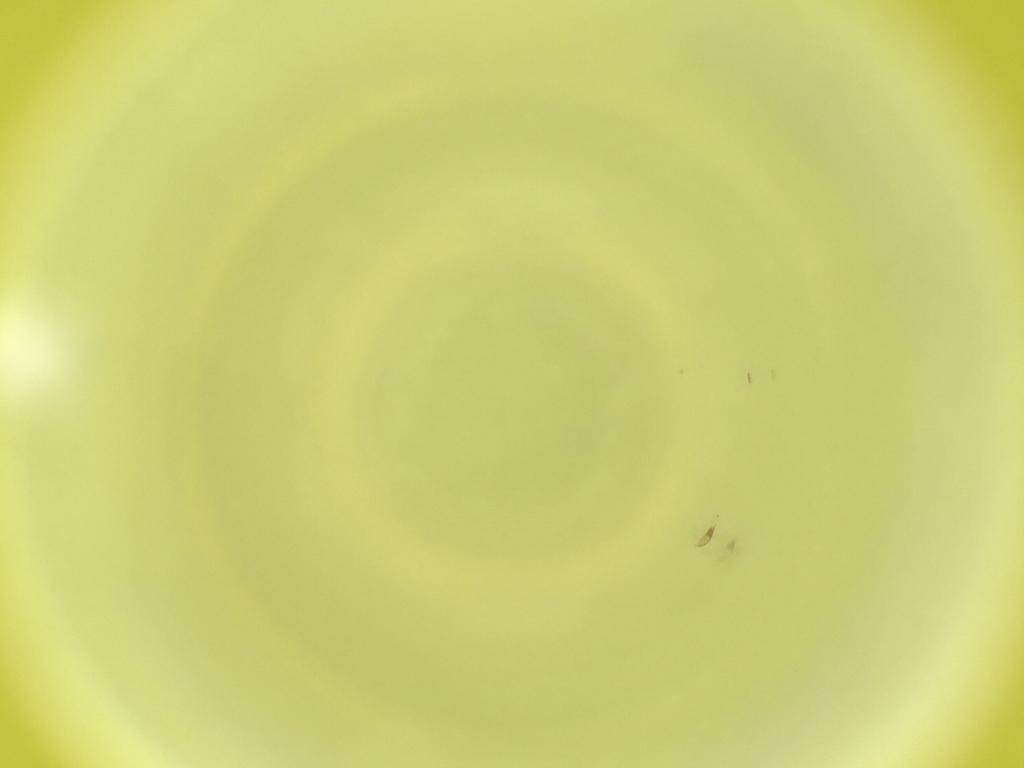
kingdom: Animalia
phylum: Arthropoda
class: Insecta
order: Diptera
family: Cecidomyiidae
